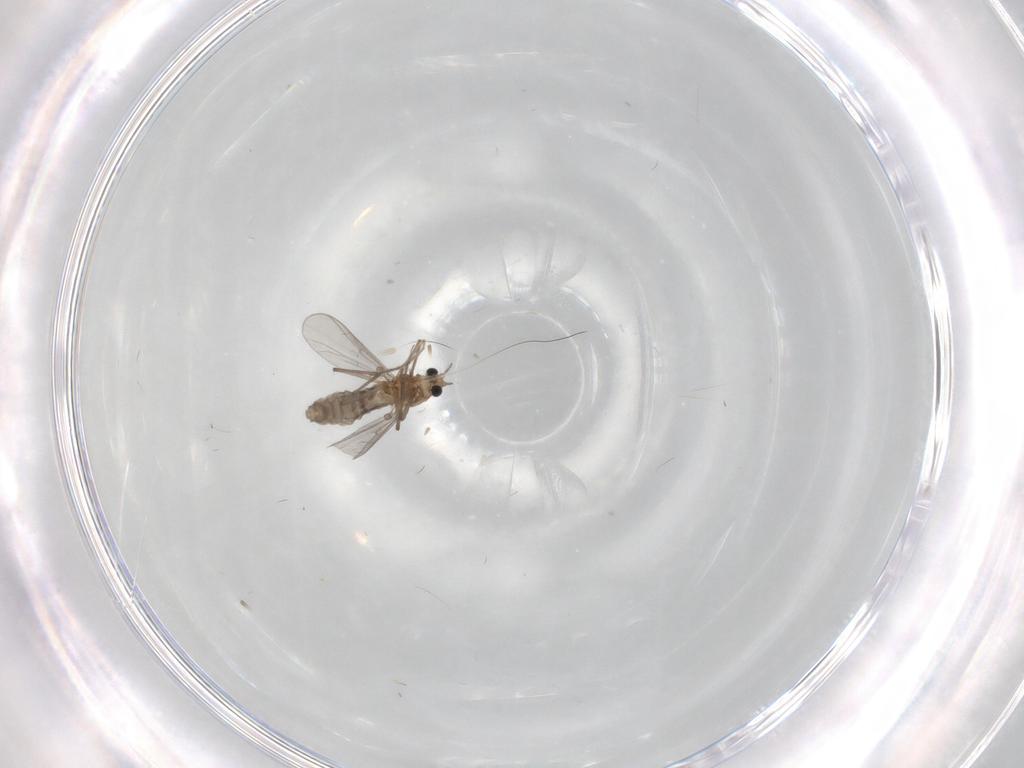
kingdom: Animalia
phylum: Arthropoda
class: Insecta
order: Diptera
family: Chironomidae
